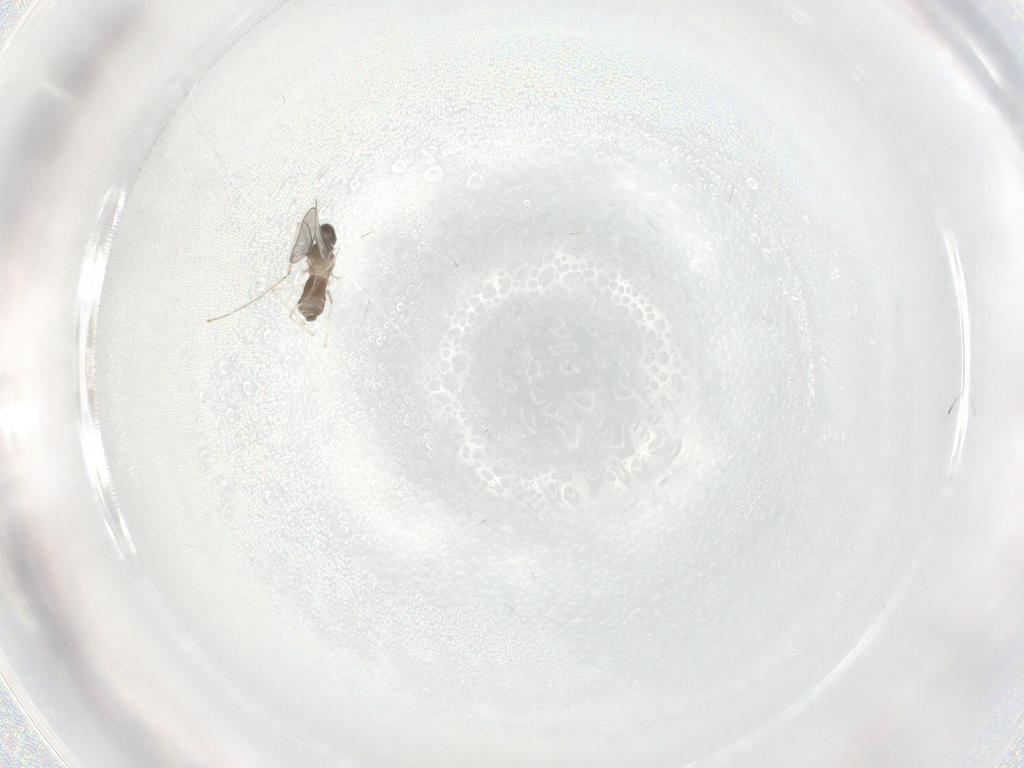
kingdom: Animalia
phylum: Arthropoda
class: Insecta
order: Diptera
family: Cecidomyiidae
